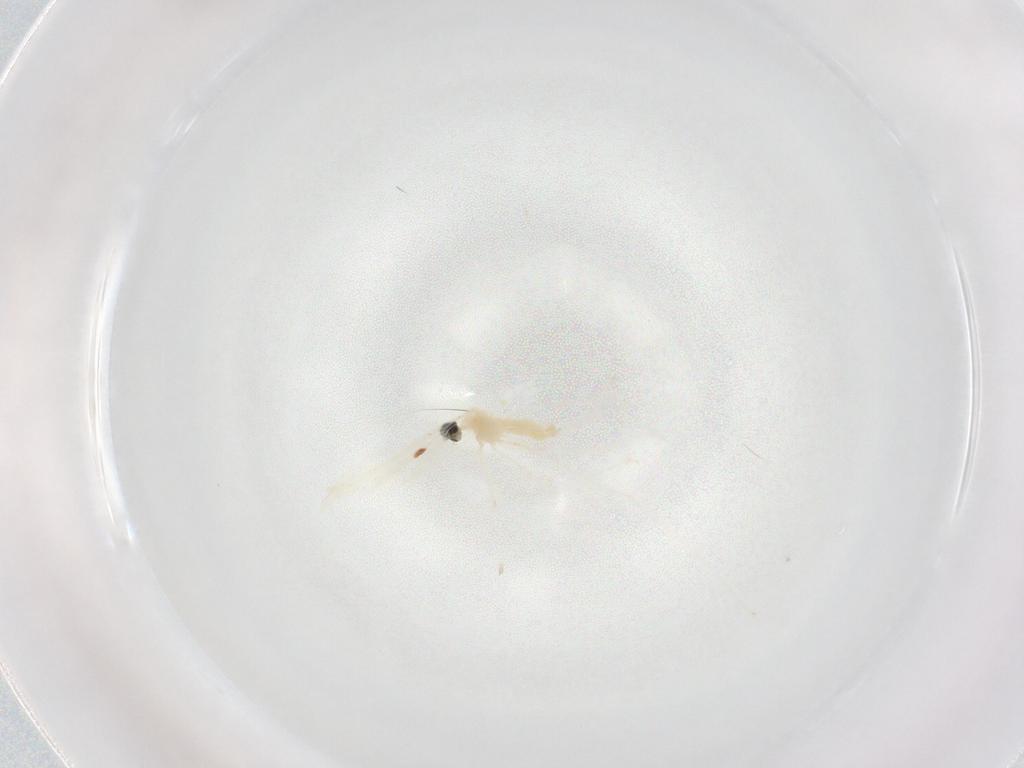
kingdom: Animalia
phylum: Arthropoda
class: Insecta
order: Diptera
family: Cecidomyiidae
